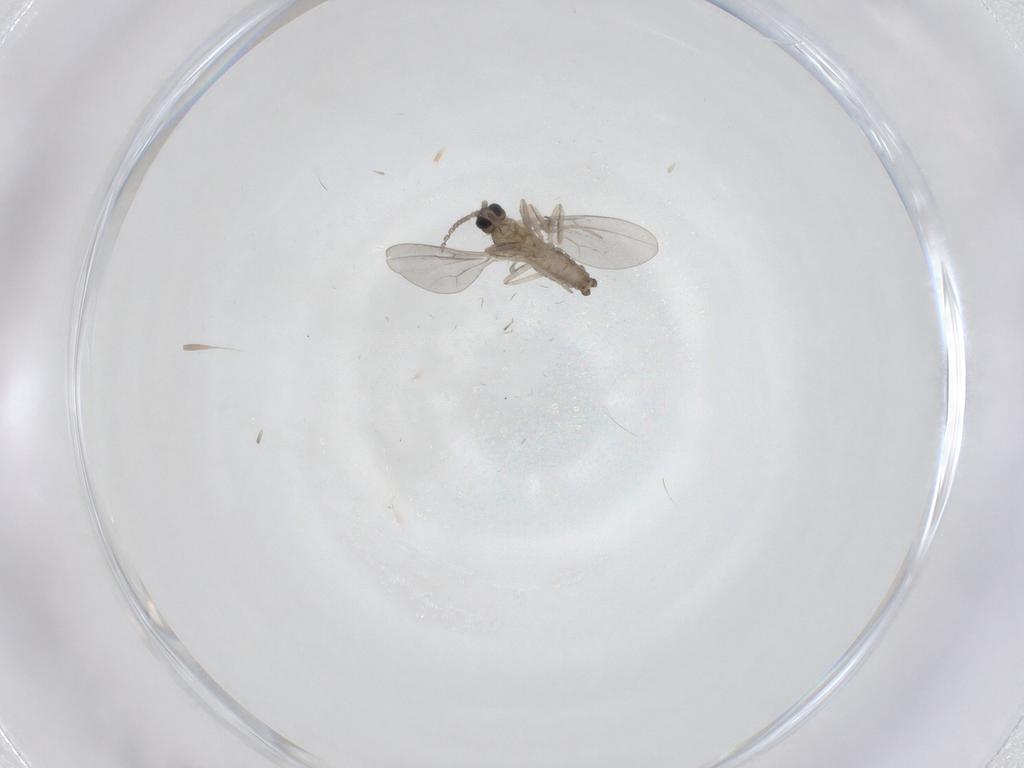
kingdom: Animalia
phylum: Arthropoda
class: Insecta
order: Diptera
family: Cecidomyiidae
